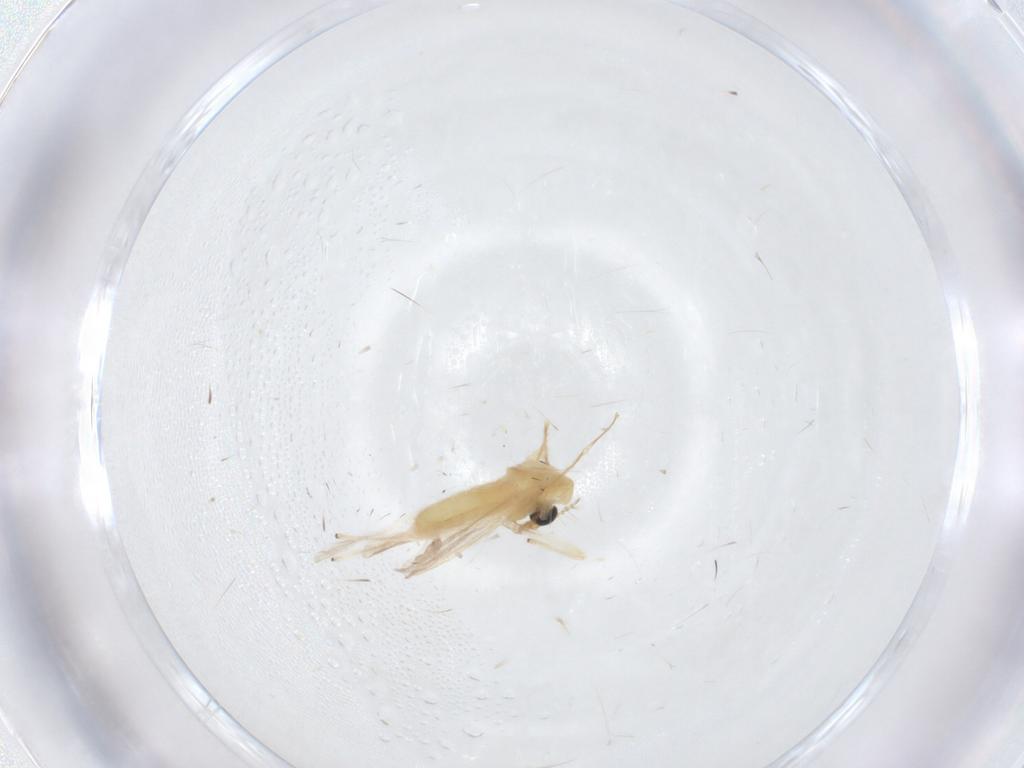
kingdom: Animalia
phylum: Arthropoda
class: Insecta
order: Diptera
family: Chironomidae
